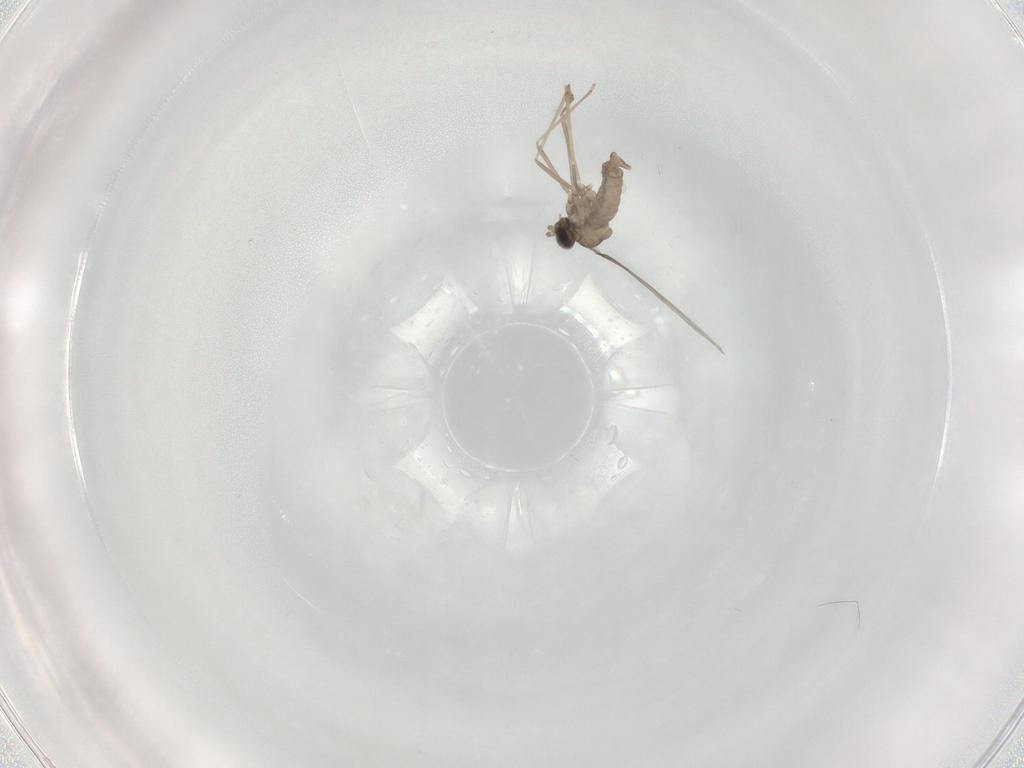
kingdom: Animalia
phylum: Arthropoda
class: Insecta
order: Diptera
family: Cecidomyiidae
